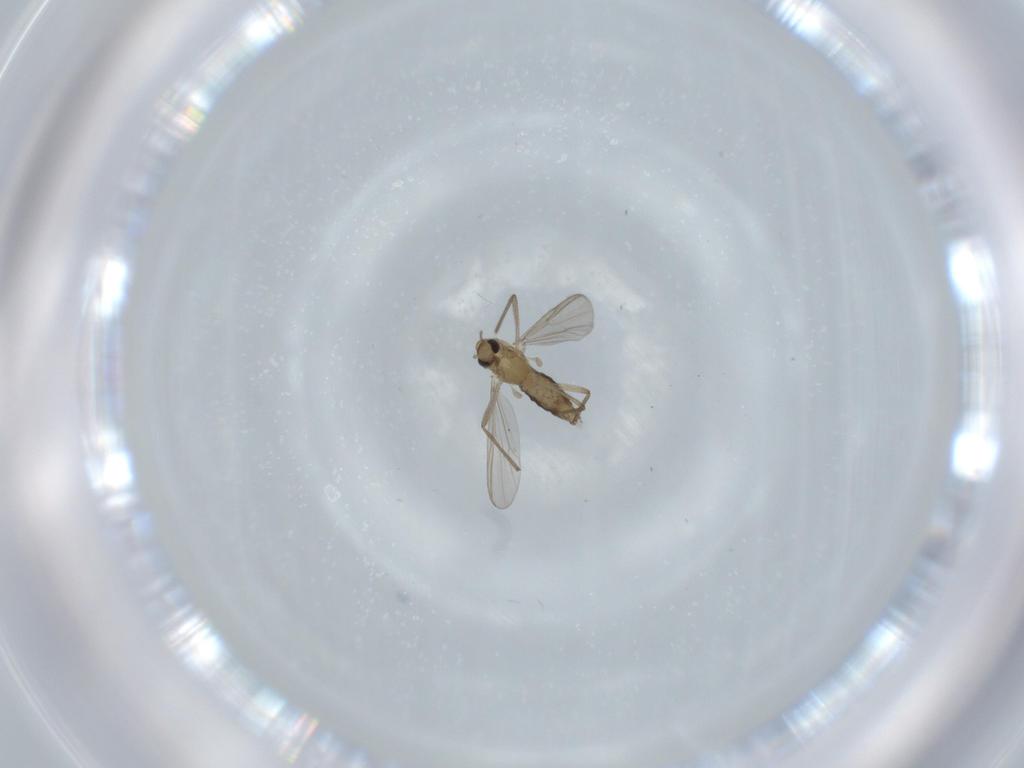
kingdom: Animalia
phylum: Arthropoda
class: Insecta
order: Diptera
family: Chironomidae
